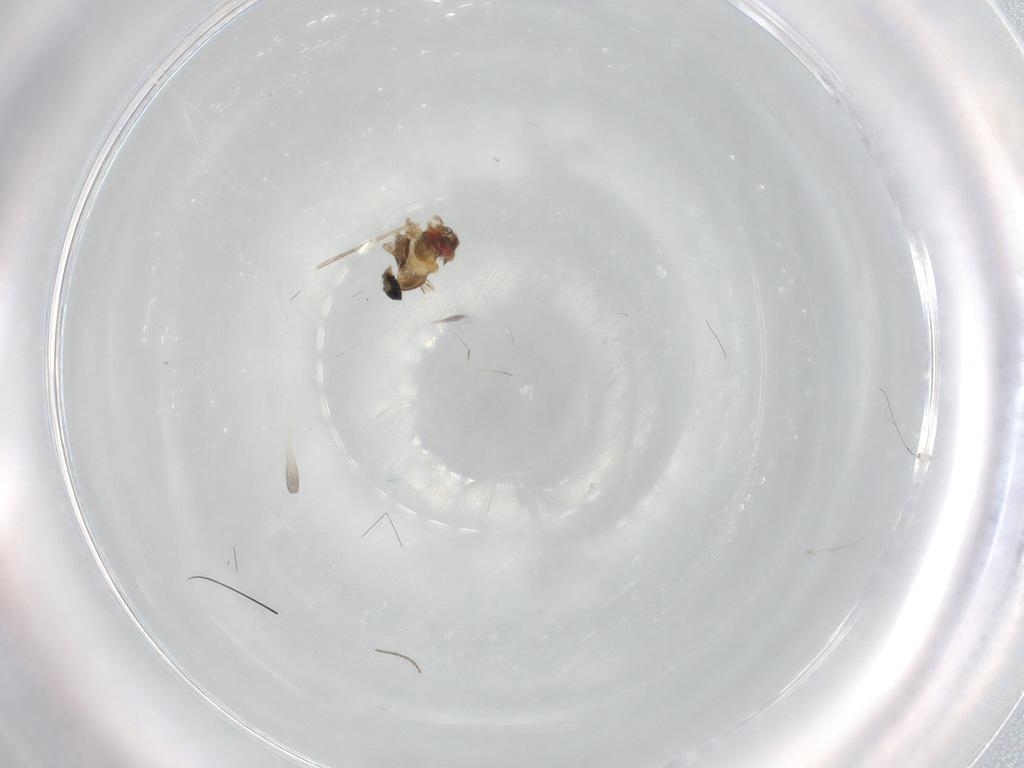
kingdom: Animalia
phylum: Arthropoda
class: Insecta
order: Diptera
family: Cecidomyiidae
